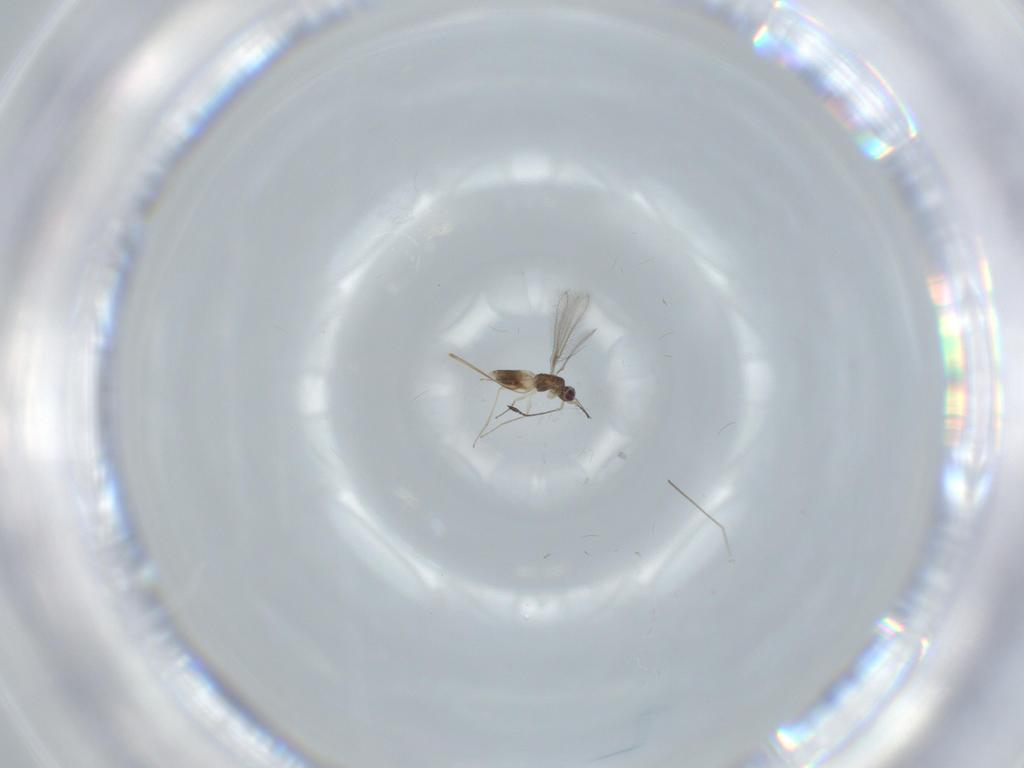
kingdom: Animalia
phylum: Arthropoda
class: Insecta
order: Hymenoptera
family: Mymaridae
